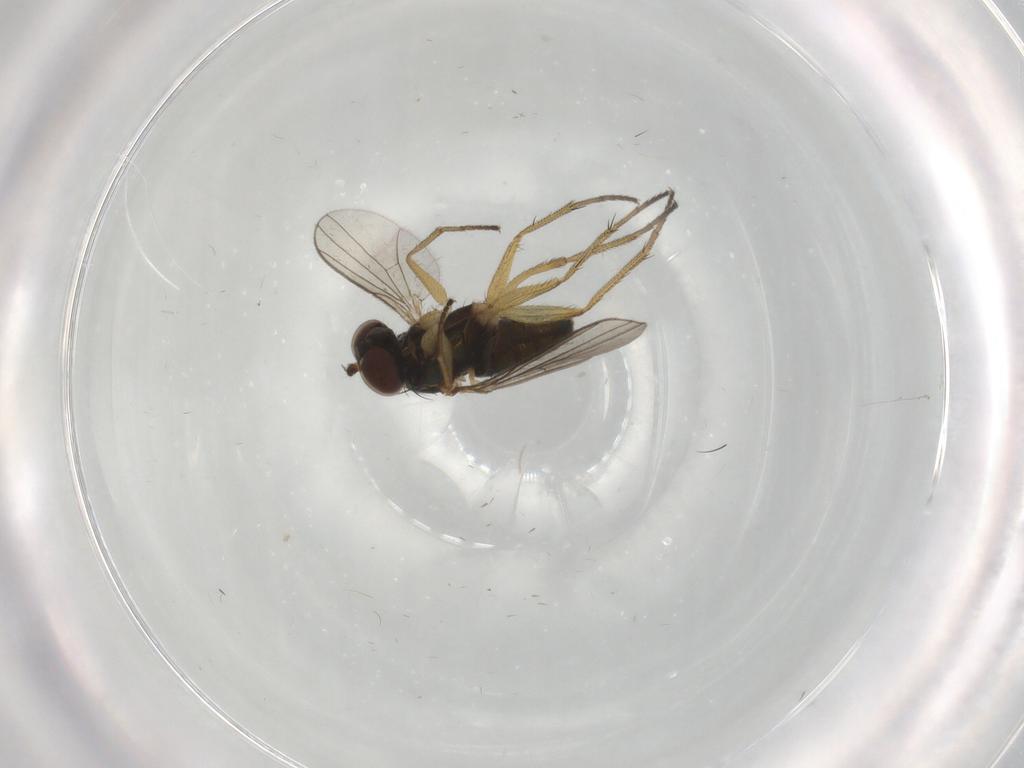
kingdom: Animalia
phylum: Arthropoda
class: Insecta
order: Diptera
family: Dolichopodidae
